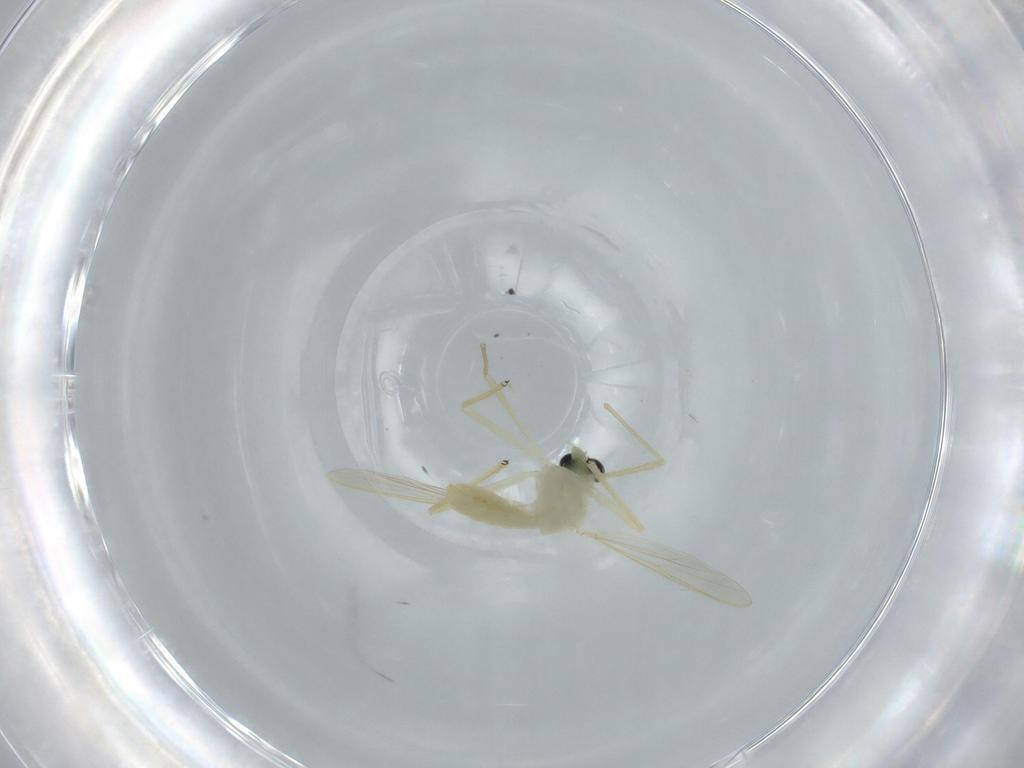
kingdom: Animalia
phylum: Arthropoda
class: Insecta
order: Diptera
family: Chironomidae
